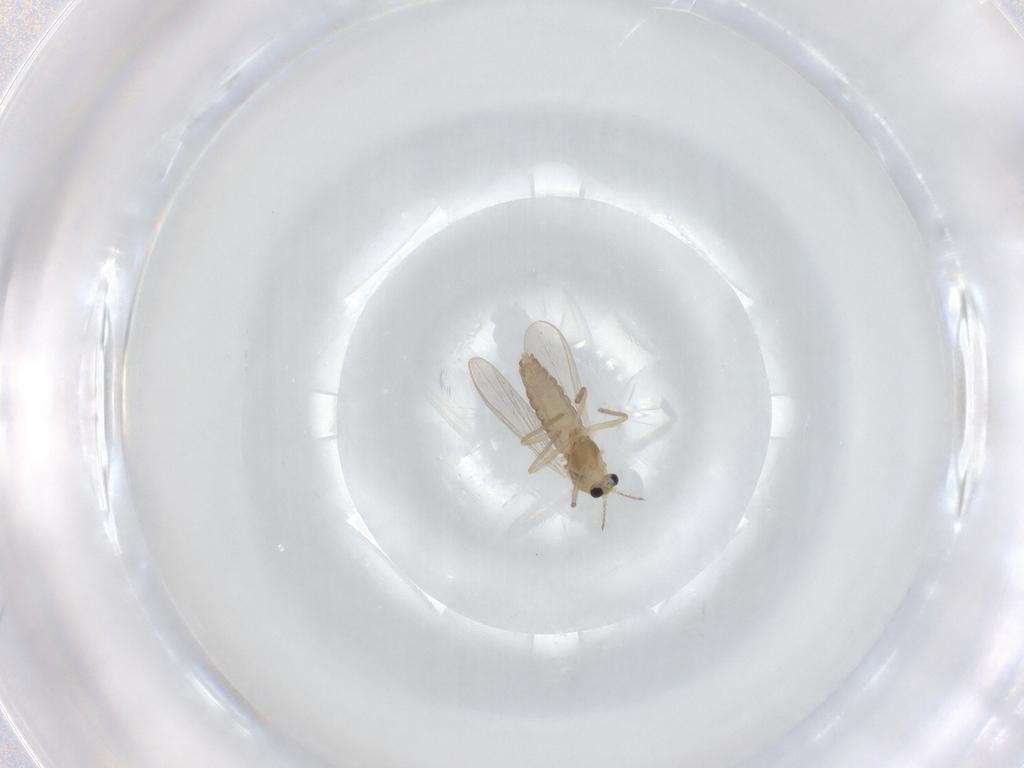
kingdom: Animalia
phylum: Arthropoda
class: Insecta
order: Diptera
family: Chironomidae
